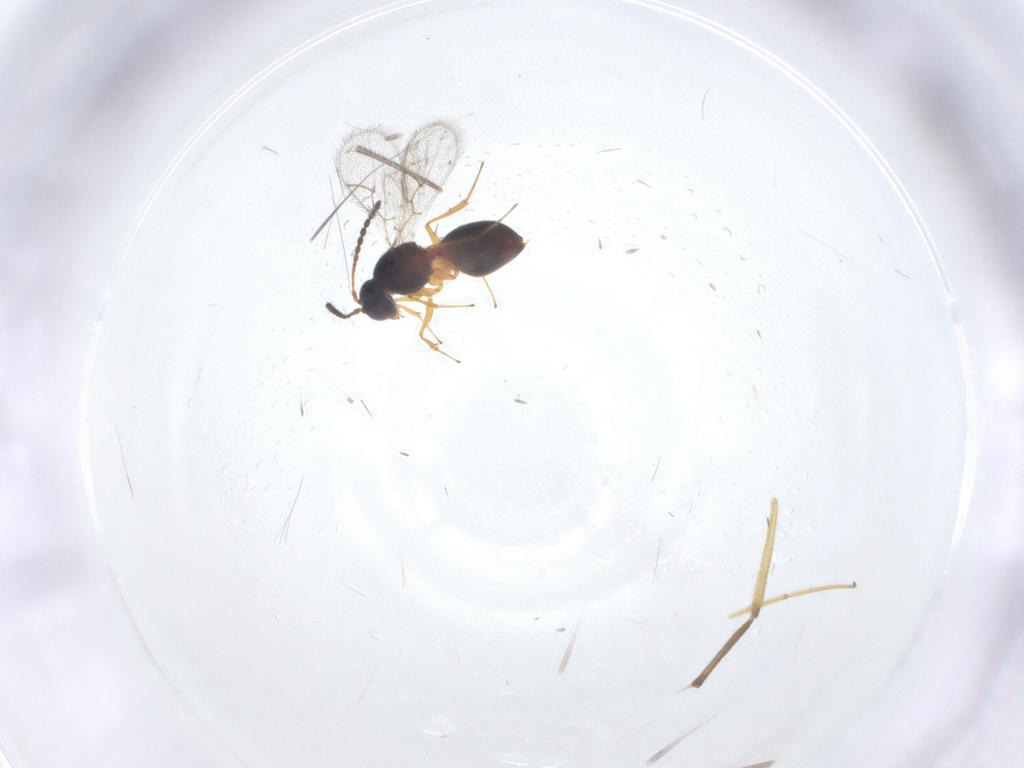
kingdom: Animalia
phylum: Arthropoda
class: Insecta
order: Hymenoptera
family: Figitidae
